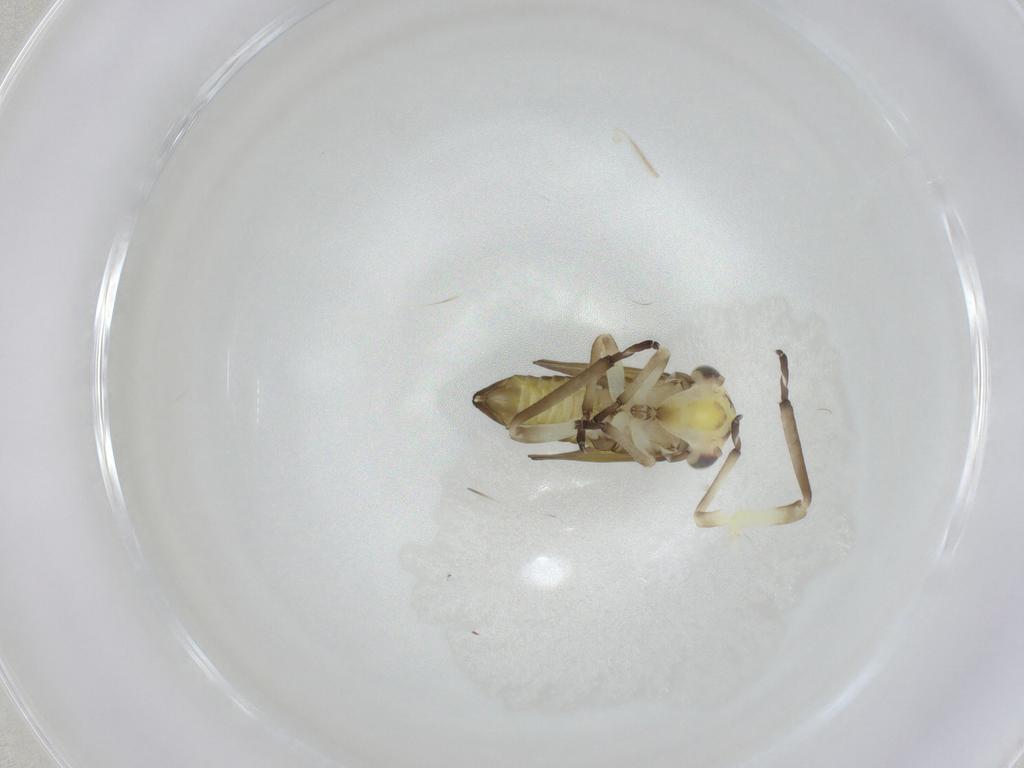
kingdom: Animalia
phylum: Arthropoda
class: Insecta
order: Hemiptera
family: Cicadellidae
